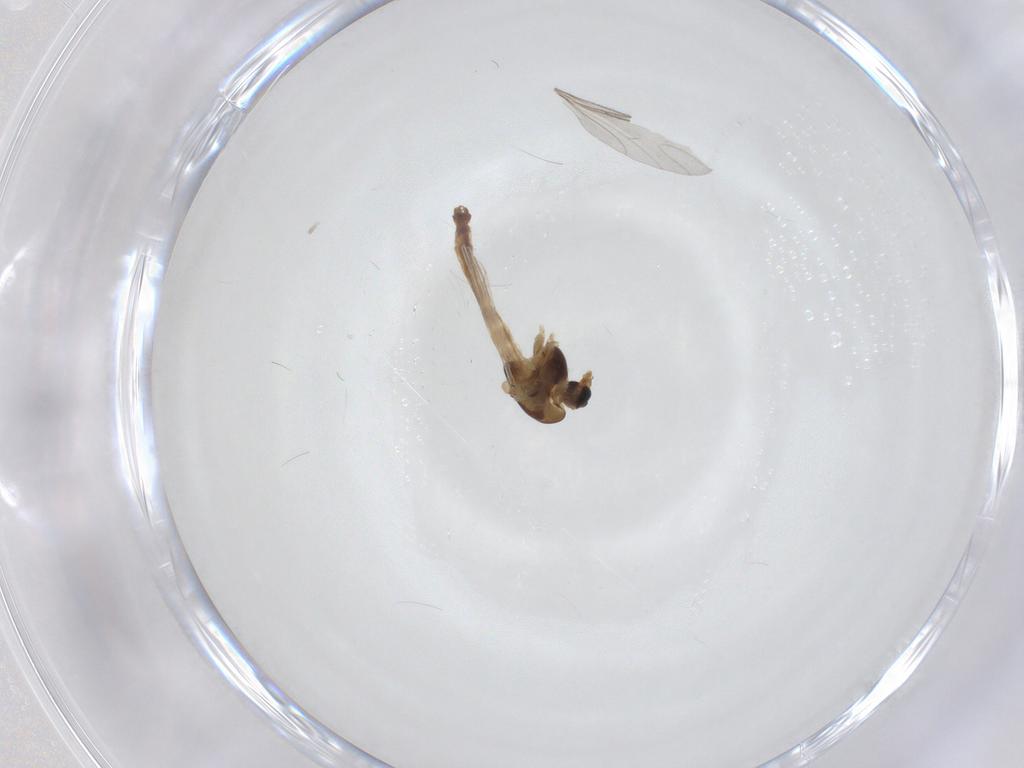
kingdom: Animalia
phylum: Arthropoda
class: Insecta
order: Diptera
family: Chironomidae
